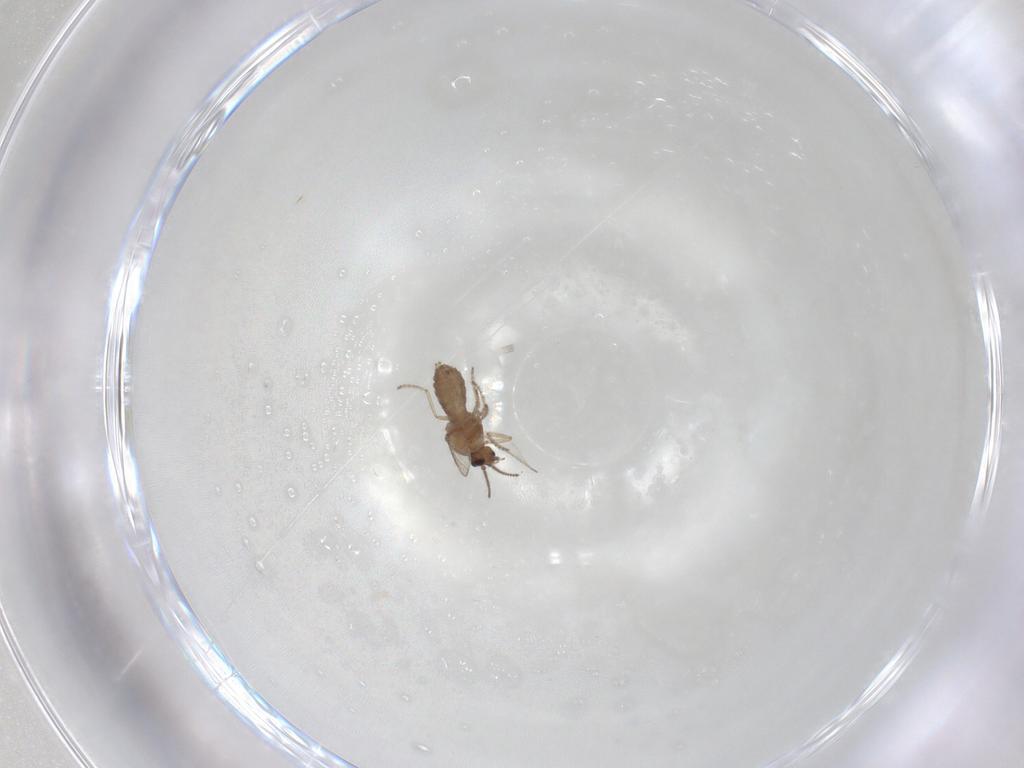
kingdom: Animalia
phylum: Arthropoda
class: Insecta
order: Diptera
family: Ceratopogonidae
